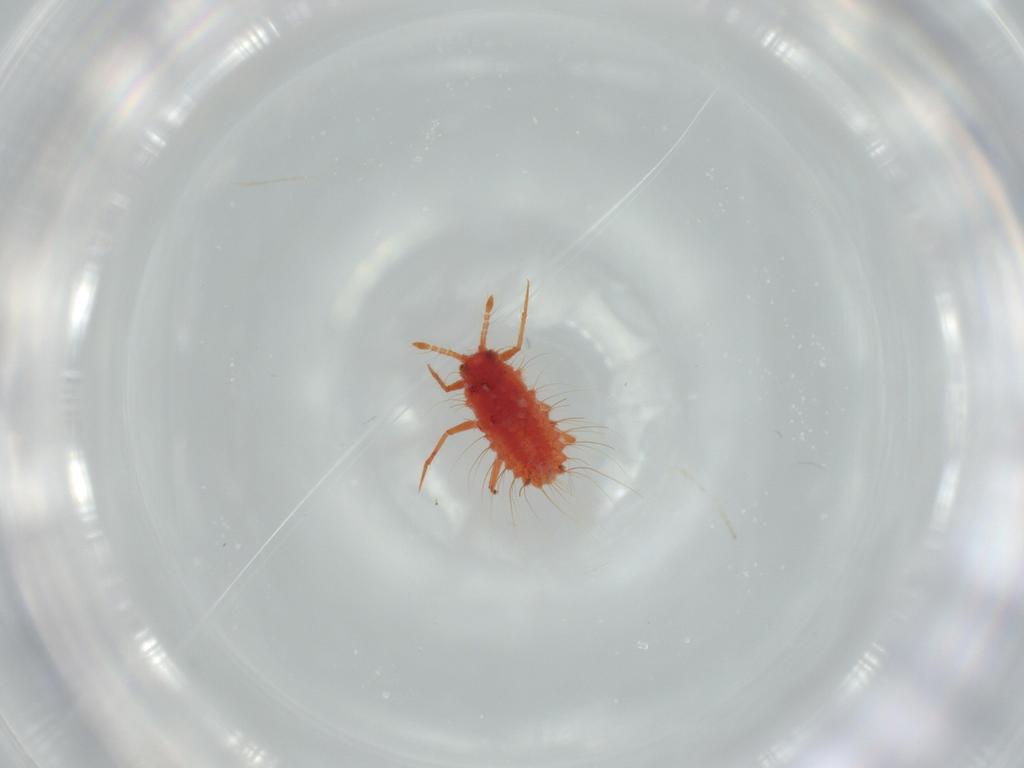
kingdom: Animalia
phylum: Arthropoda
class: Insecta
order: Hemiptera
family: Monophlebidae
